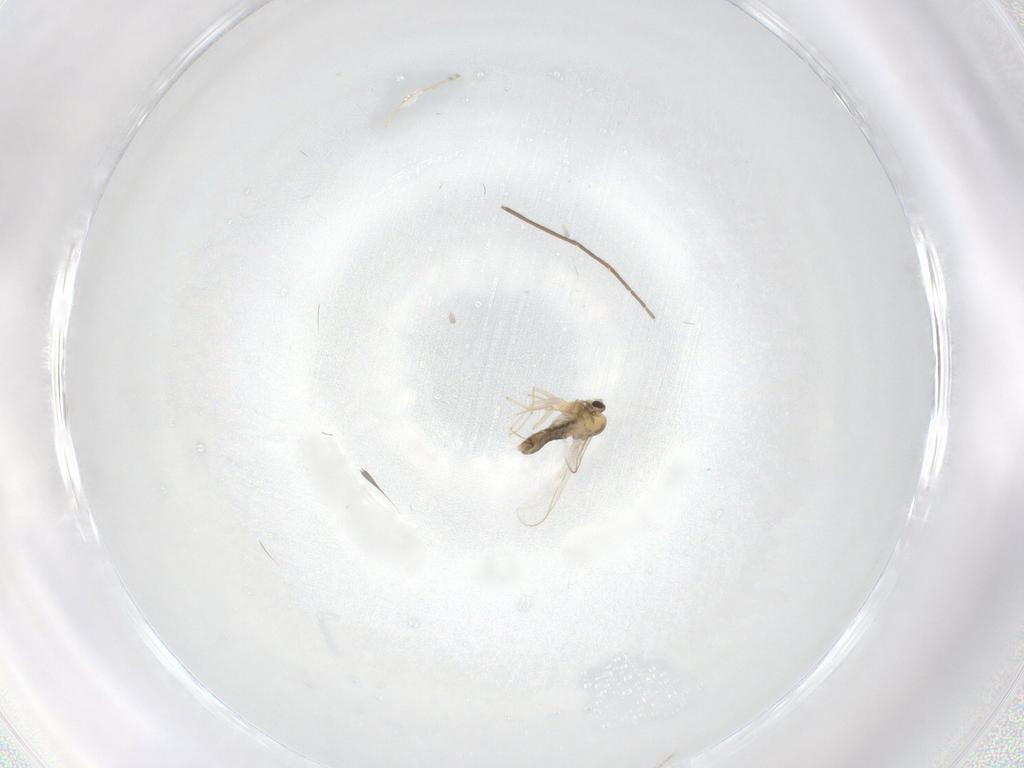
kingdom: Animalia
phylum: Arthropoda
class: Insecta
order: Diptera
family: Chironomidae
